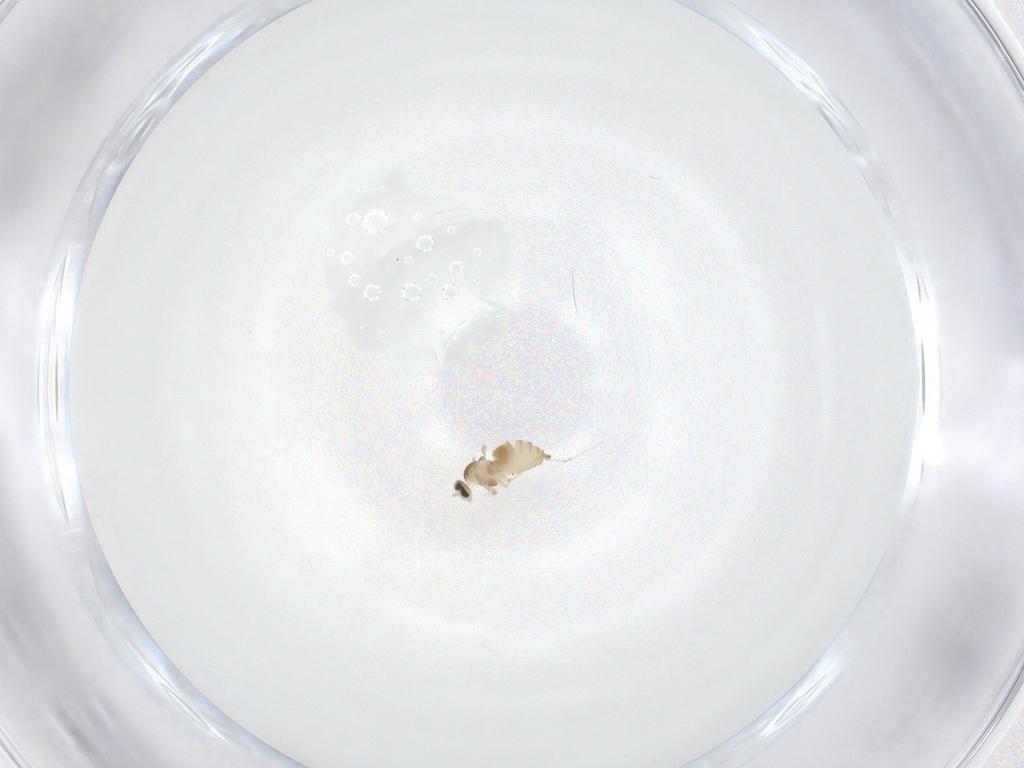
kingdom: Animalia
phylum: Arthropoda
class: Insecta
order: Diptera
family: Cecidomyiidae
